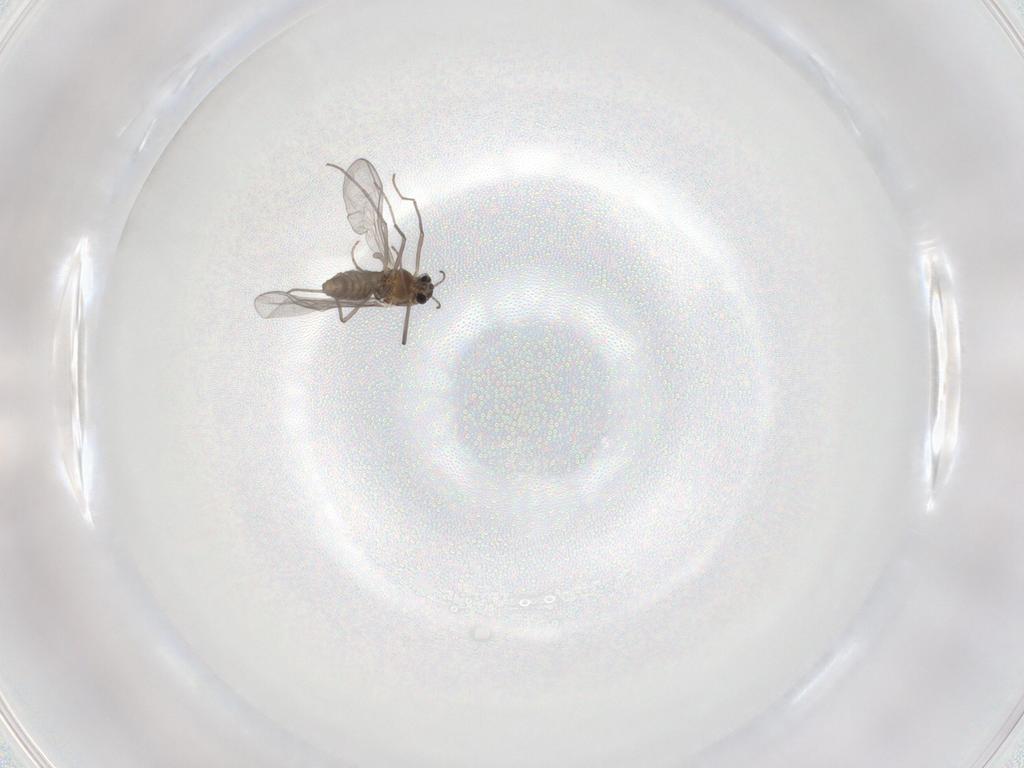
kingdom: Animalia
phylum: Arthropoda
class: Insecta
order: Diptera
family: Chironomidae
